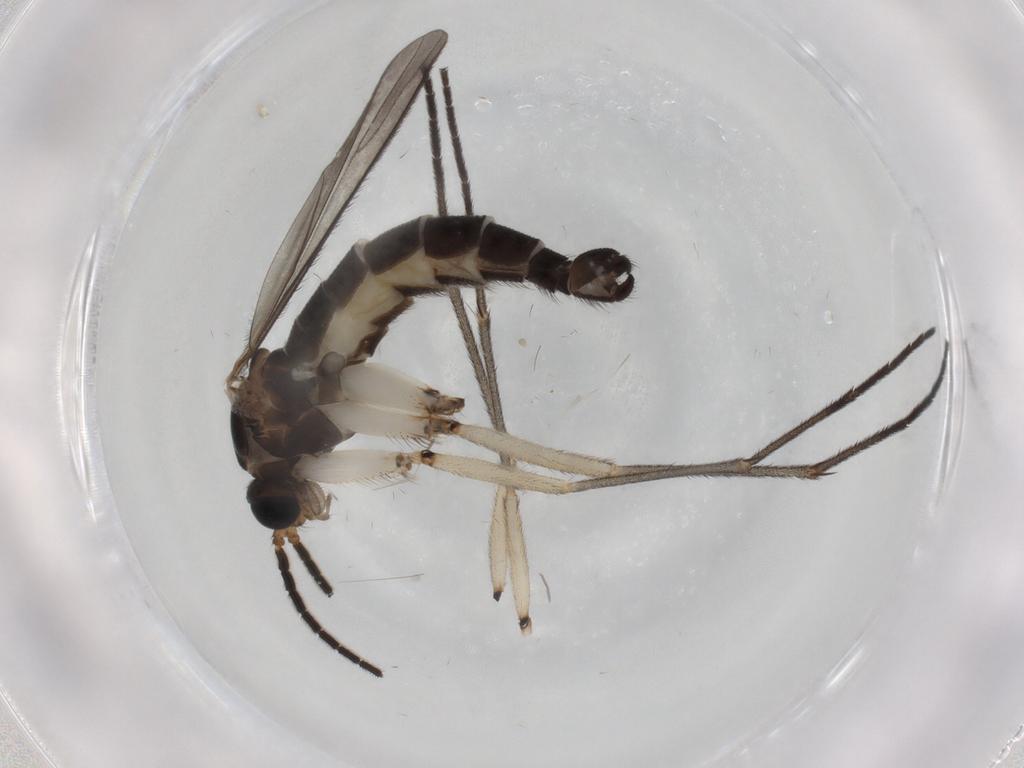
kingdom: Animalia
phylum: Arthropoda
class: Insecta
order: Diptera
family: Sciaridae
